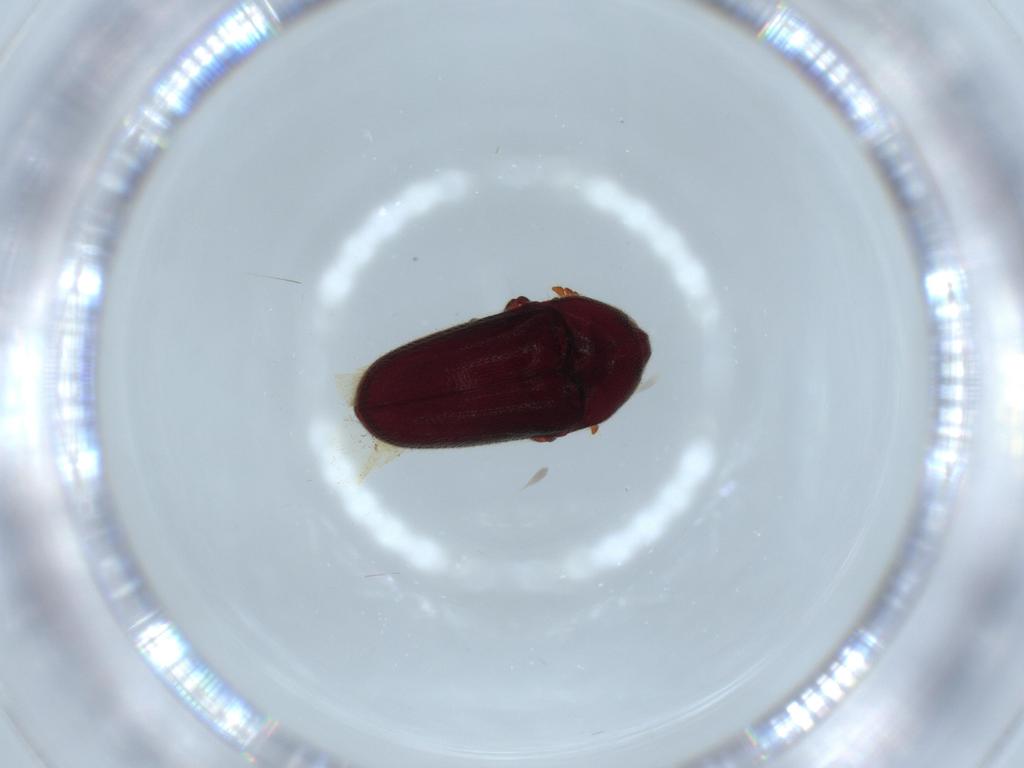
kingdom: Animalia
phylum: Arthropoda
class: Insecta
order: Coleoptera
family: Throscidae
